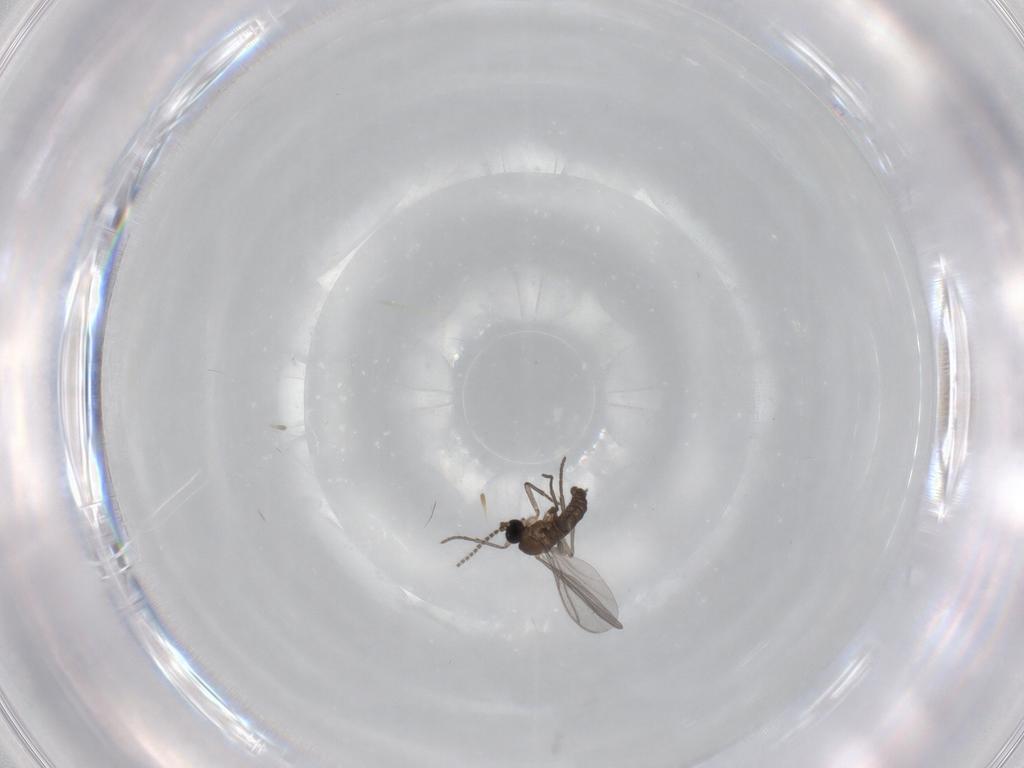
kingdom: Animalia
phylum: Arthropoda
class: Insecta
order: Diptera
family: Sciaridae
